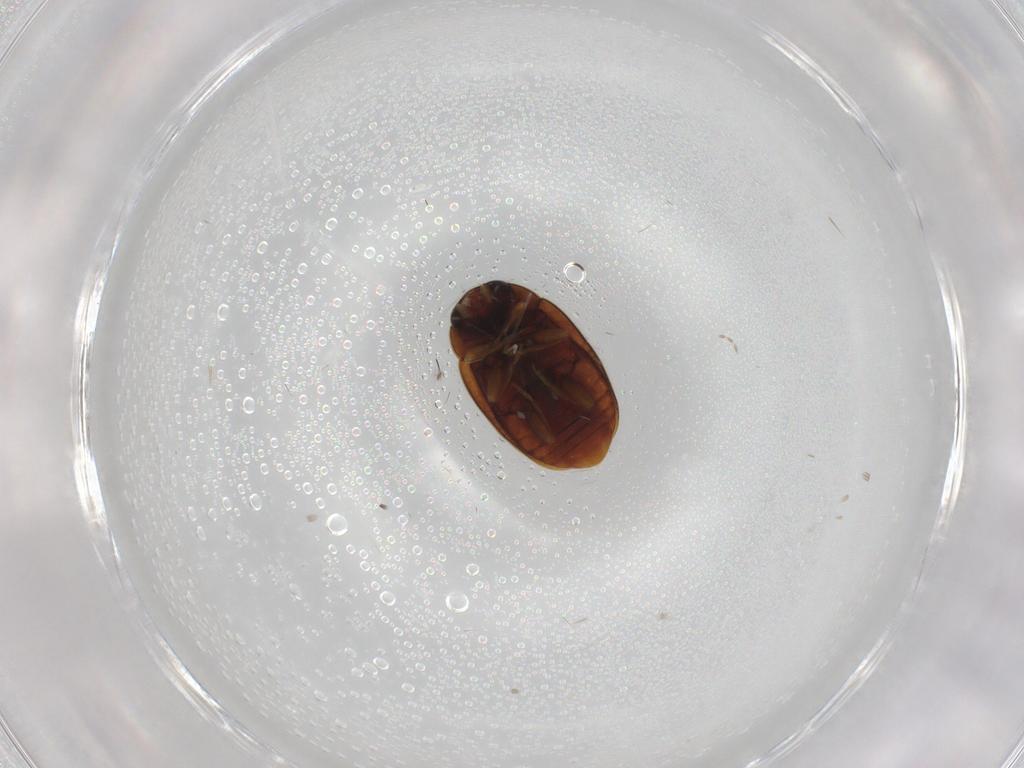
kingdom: Animalia
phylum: Arthropoda
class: Insecta
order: Coleoptera
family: Coccinellidae
